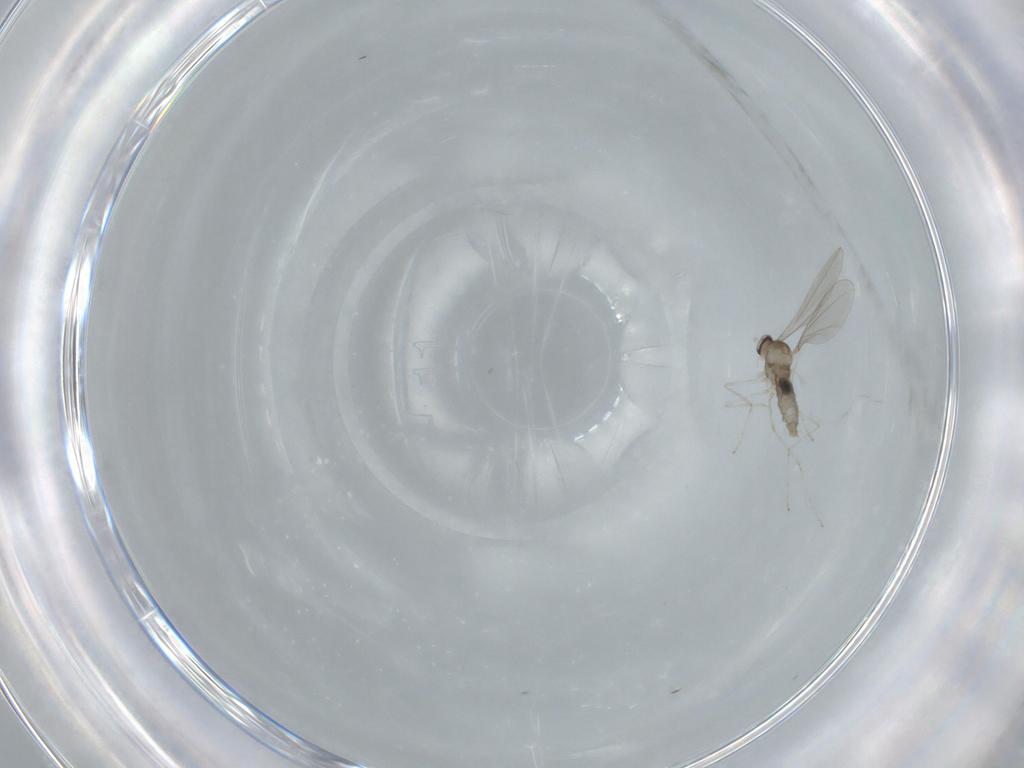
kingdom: Animalia
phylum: Arthropoda
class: Insecta
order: Diptera
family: Cecidomyiidae
